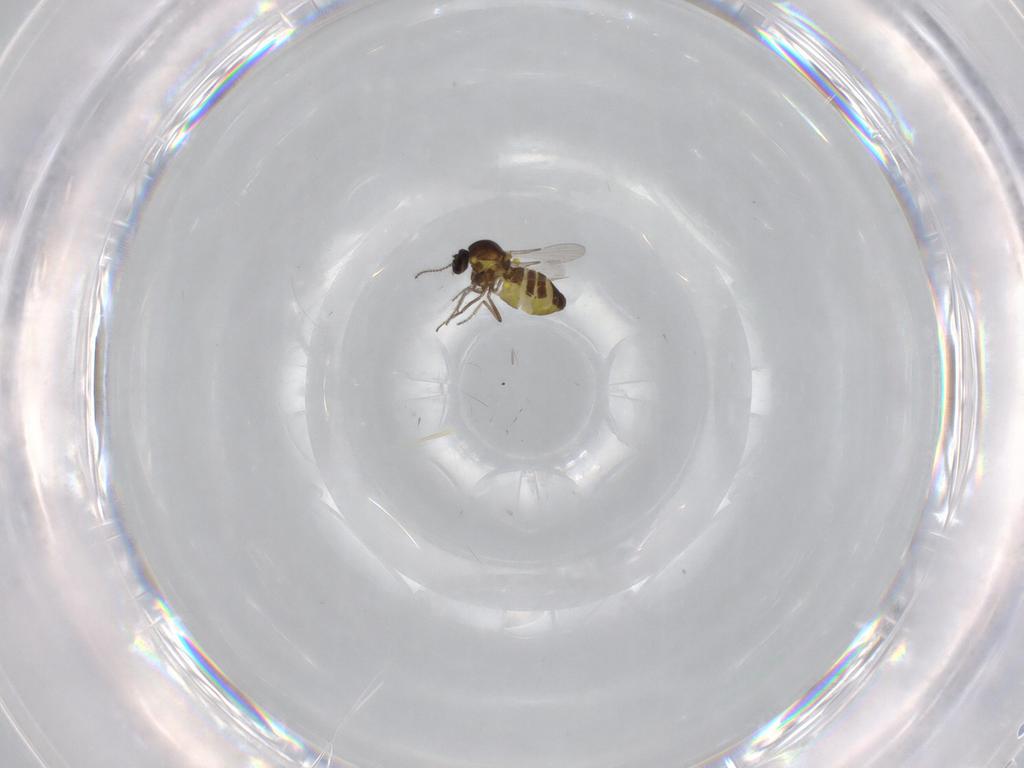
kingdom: Animalia
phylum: Arthropoda
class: Insecta
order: Diptera
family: Ceratopogonidae
